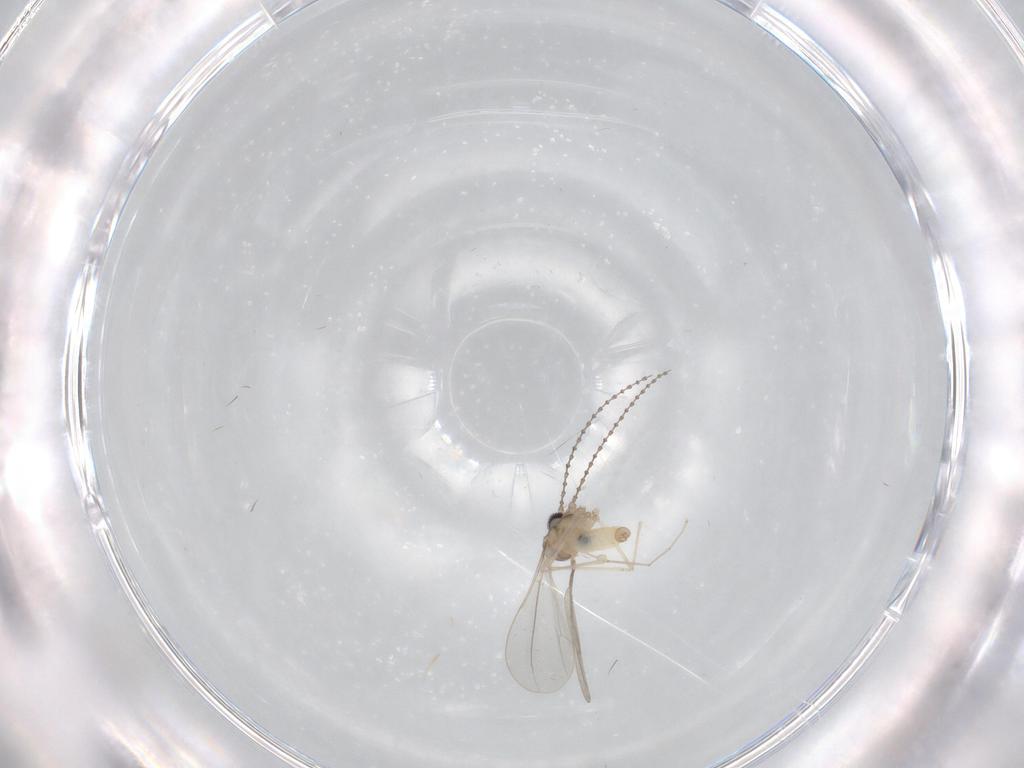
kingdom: Animalia
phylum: Arthropoda
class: Insecta
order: Diptera
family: Cecidomyiidae
